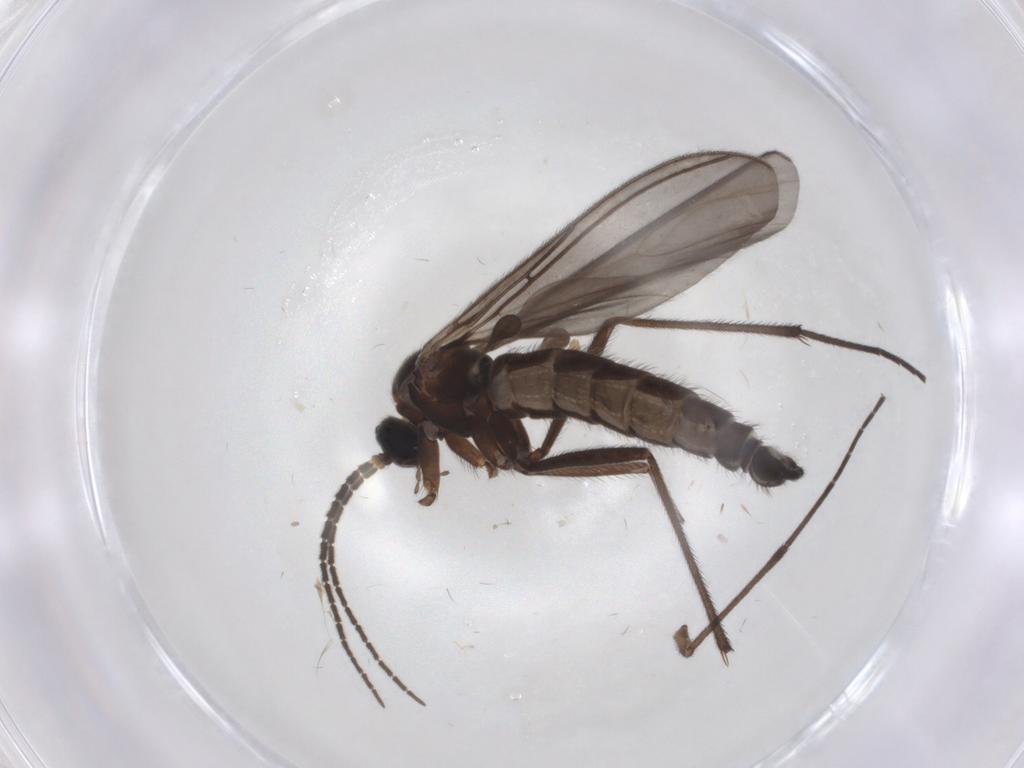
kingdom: Animalia
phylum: Arthropoda
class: Insecta
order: Diptera
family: Sciaridae
